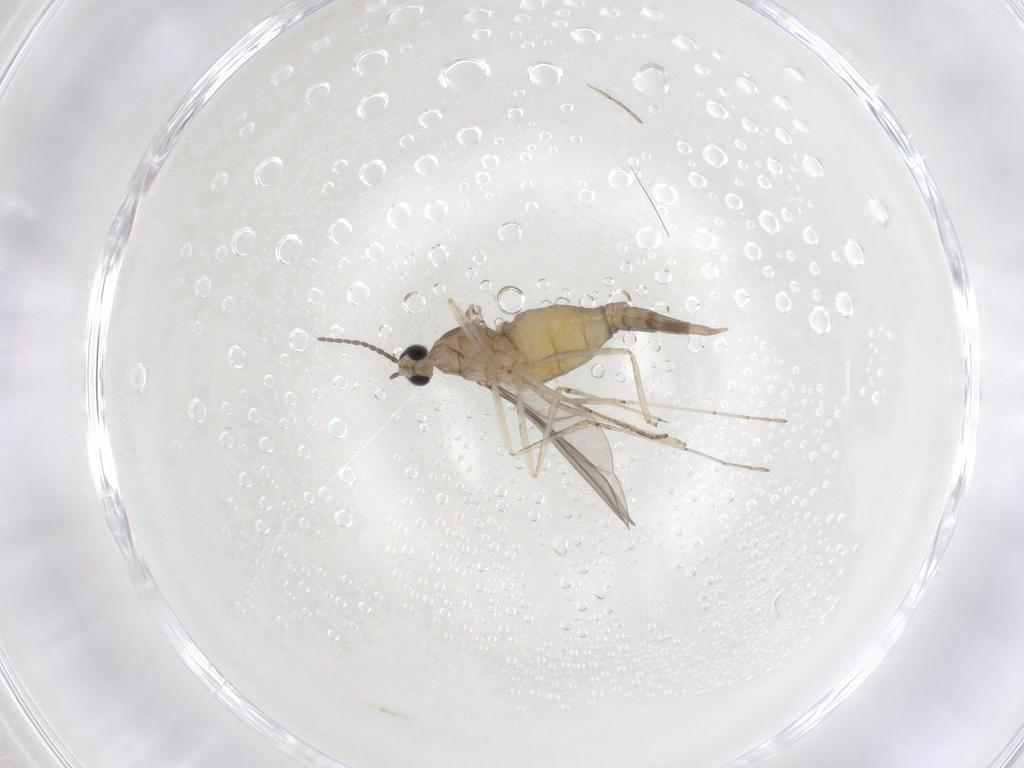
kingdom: Animalia
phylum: Arthropoda
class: Insecta
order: Diptera
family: Cecidomyiidae
